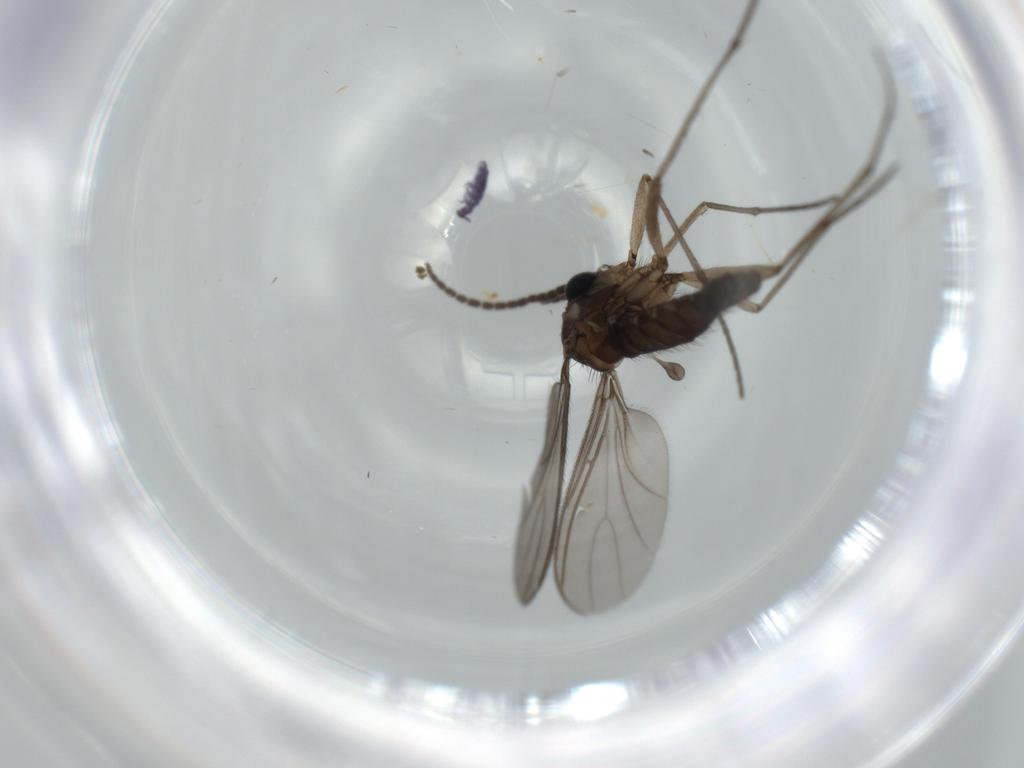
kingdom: Animalia
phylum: Arthropoda
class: Insecta
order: Diptera
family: Sciaridae
